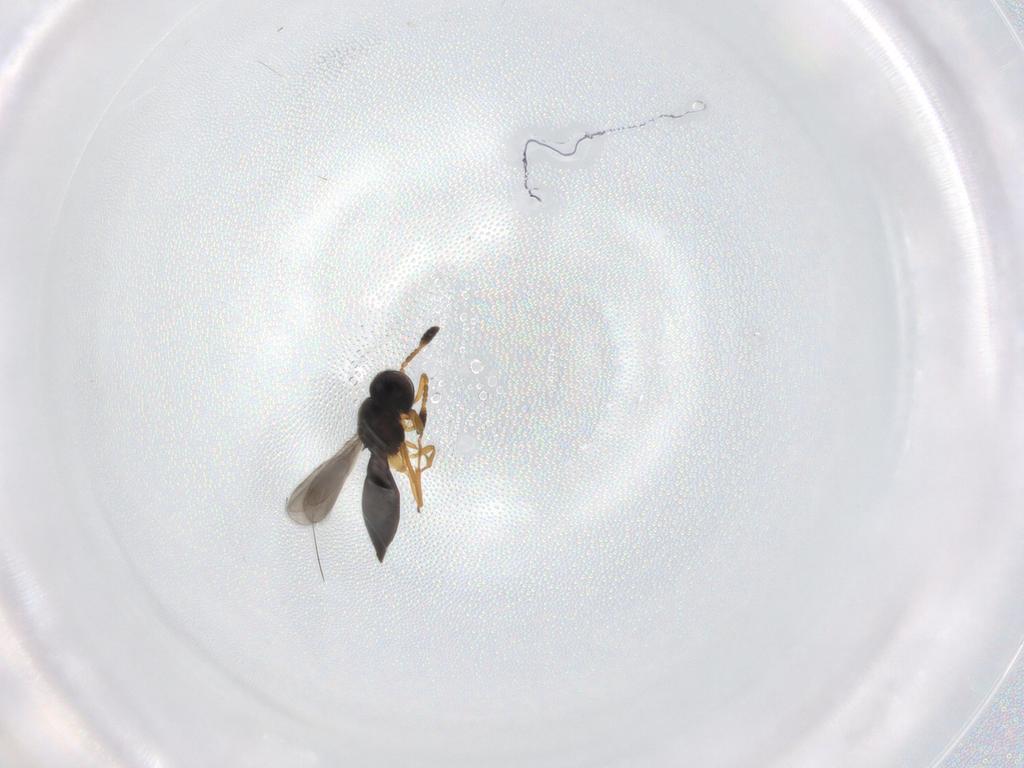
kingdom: Animalia
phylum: Arthropoda
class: Insecta
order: Hymenoptera
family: Scelionidae
